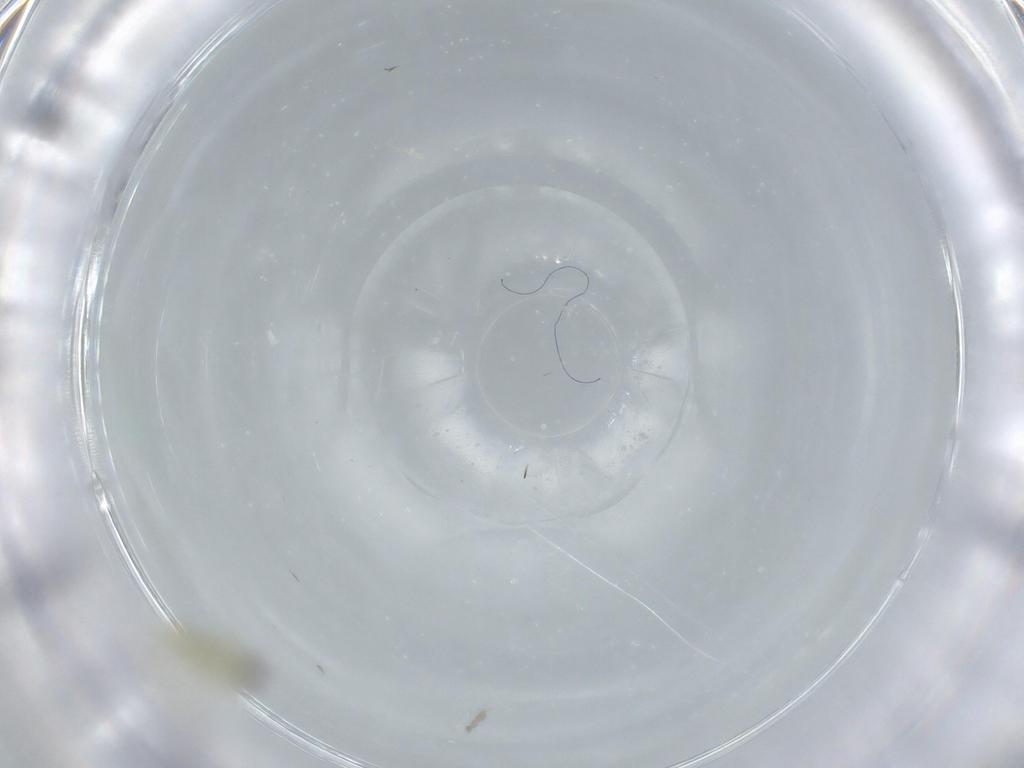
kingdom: Animalia
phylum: Arthropoda
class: Insecta
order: Hemiptera
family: Aleyrodidae
